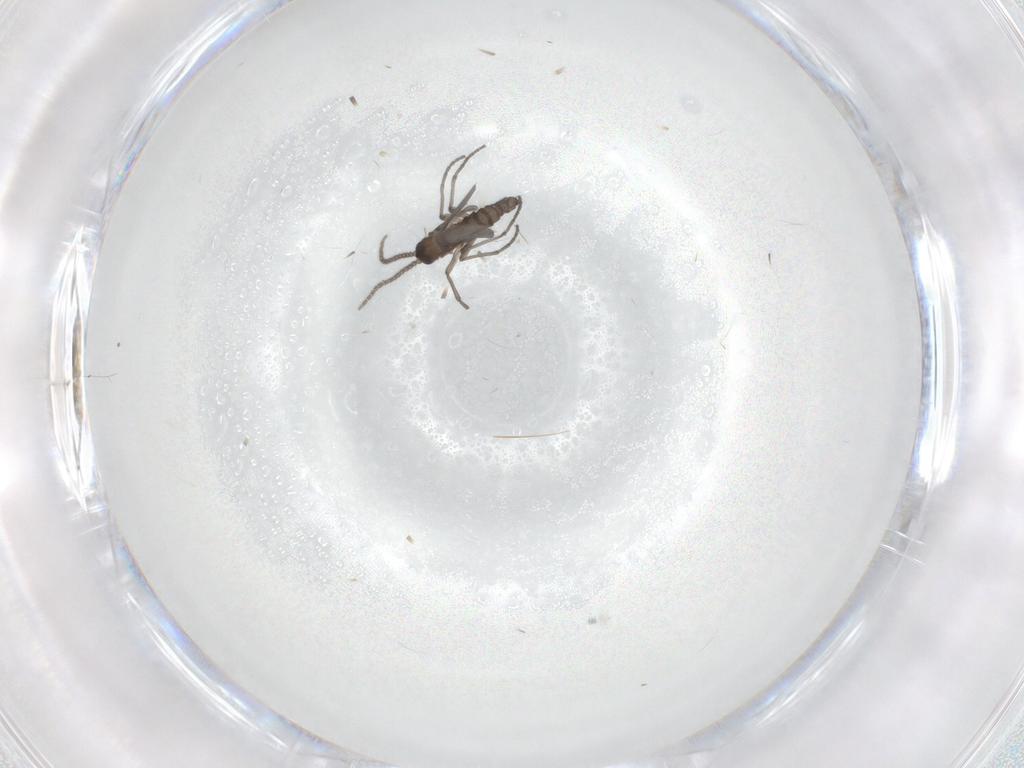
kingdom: Animalia
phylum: Arthropoda
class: Insecta
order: Diptera
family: Sciaridae
